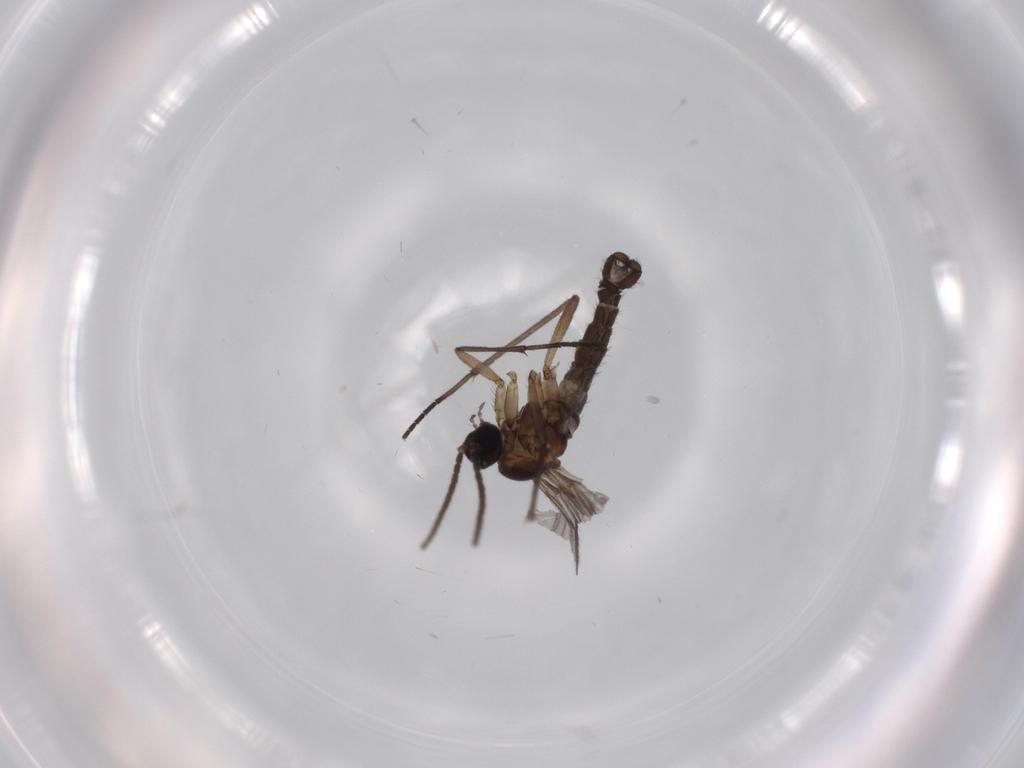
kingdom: Animalia
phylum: Arthropoda
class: Insecta
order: Diptera
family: Sciaridae
